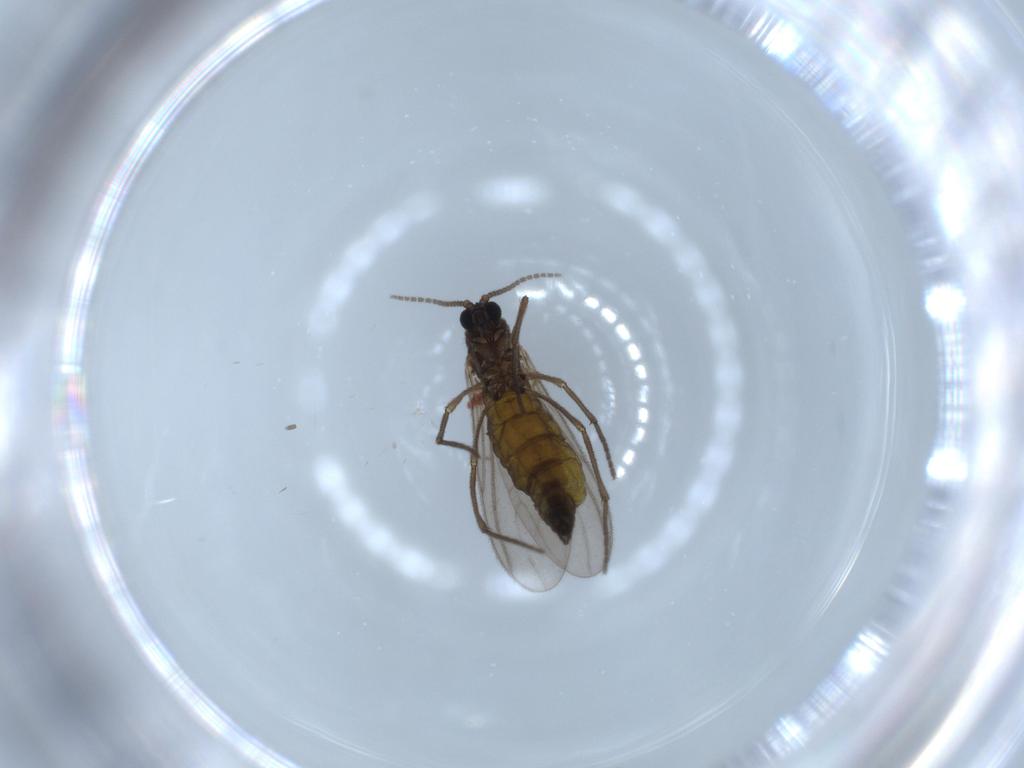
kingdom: Animalia
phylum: Arthropoda
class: Insecta
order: Diptera
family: Sciaridae
